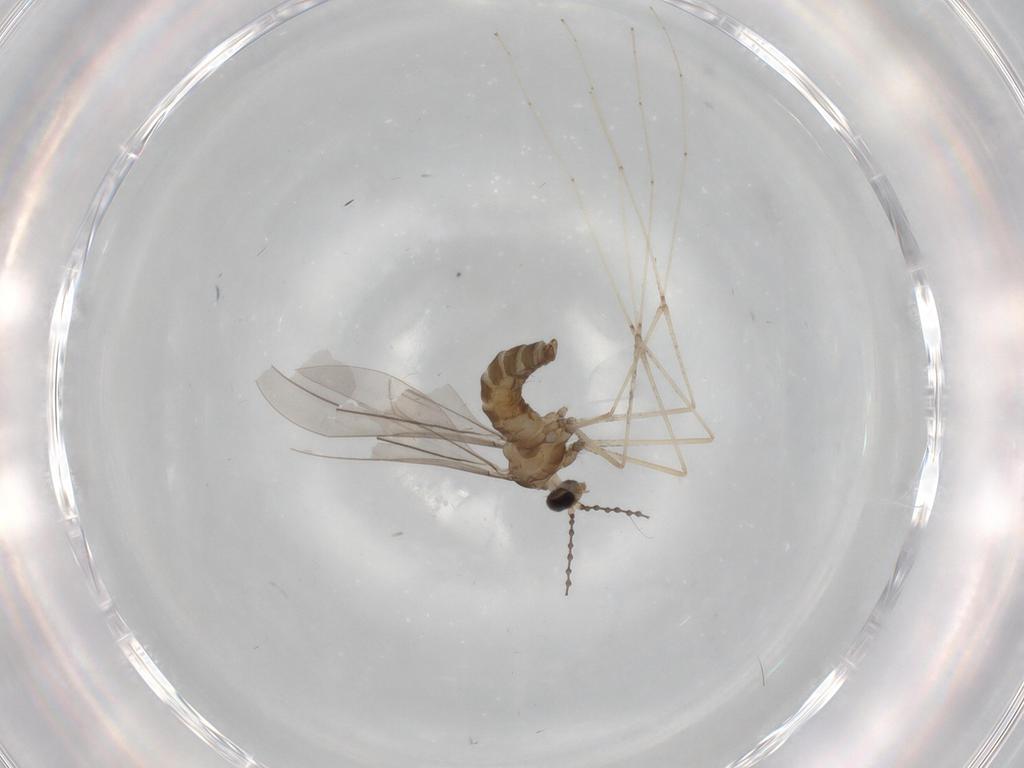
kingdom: Animalia
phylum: Arthropoda
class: Insecta
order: Diptera
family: Cecidomyiidae
